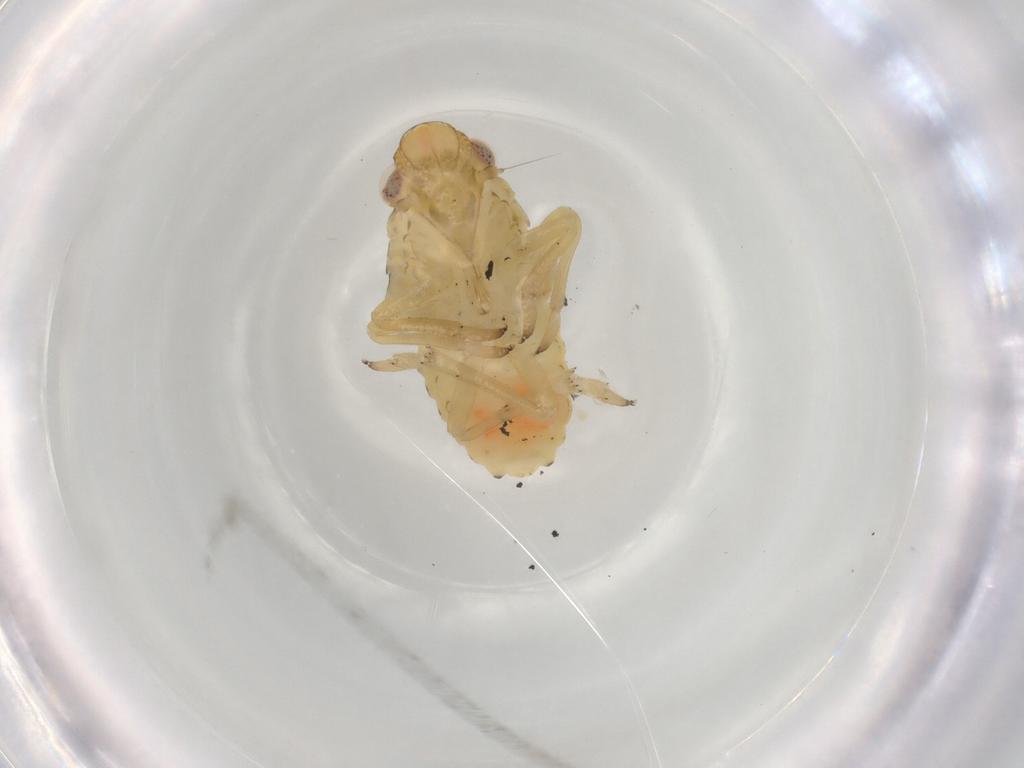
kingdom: Animalia
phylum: Arthropoda
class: Insecta
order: Hemiptera
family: Caliscelidae
